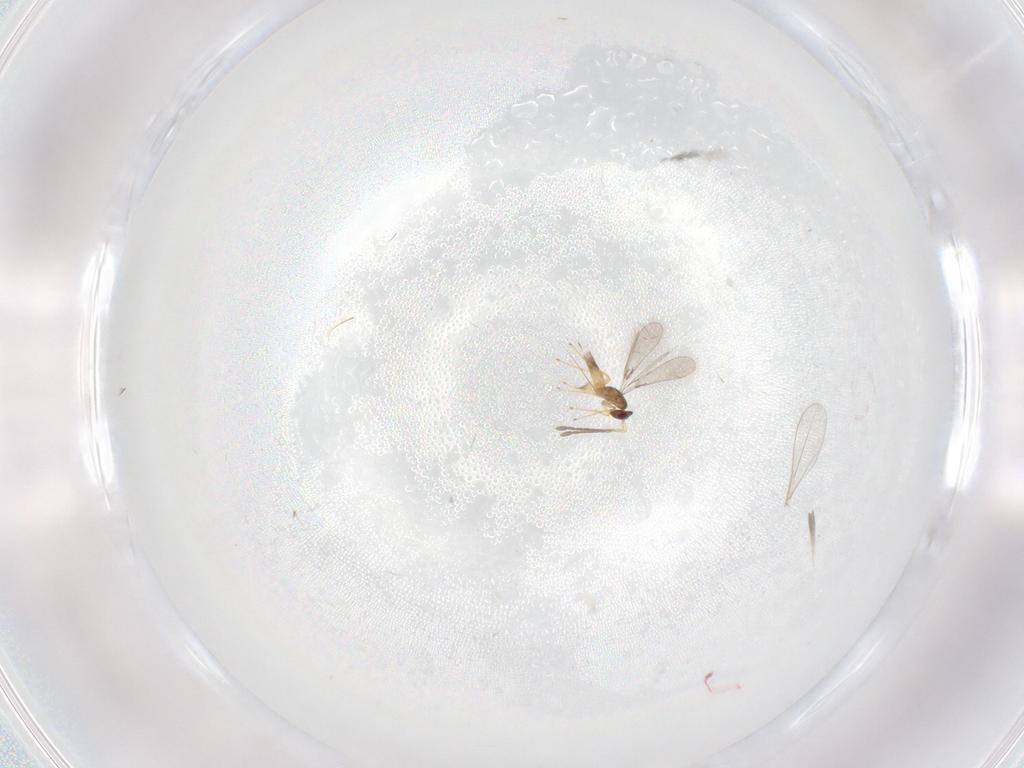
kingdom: Animalia
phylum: Arthropoda
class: Insecta
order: Diptera
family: Cecidomyiidae
